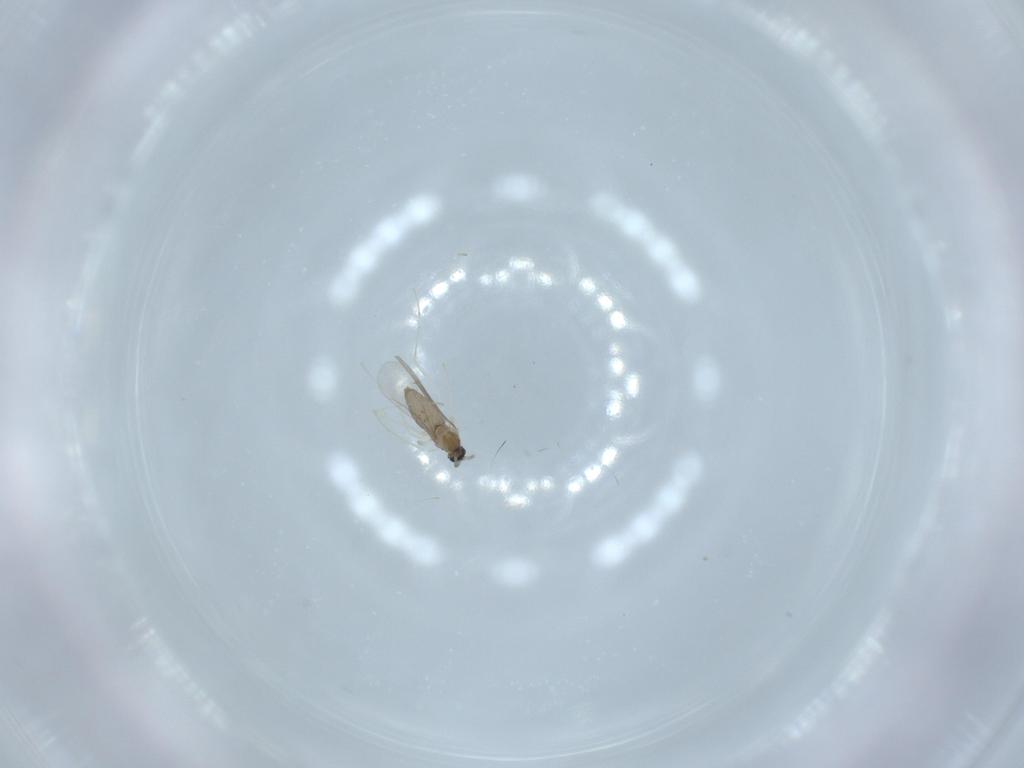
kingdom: Animalia
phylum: Arthropoda
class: Insecta
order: Diptera
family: Cecidomyiidae
